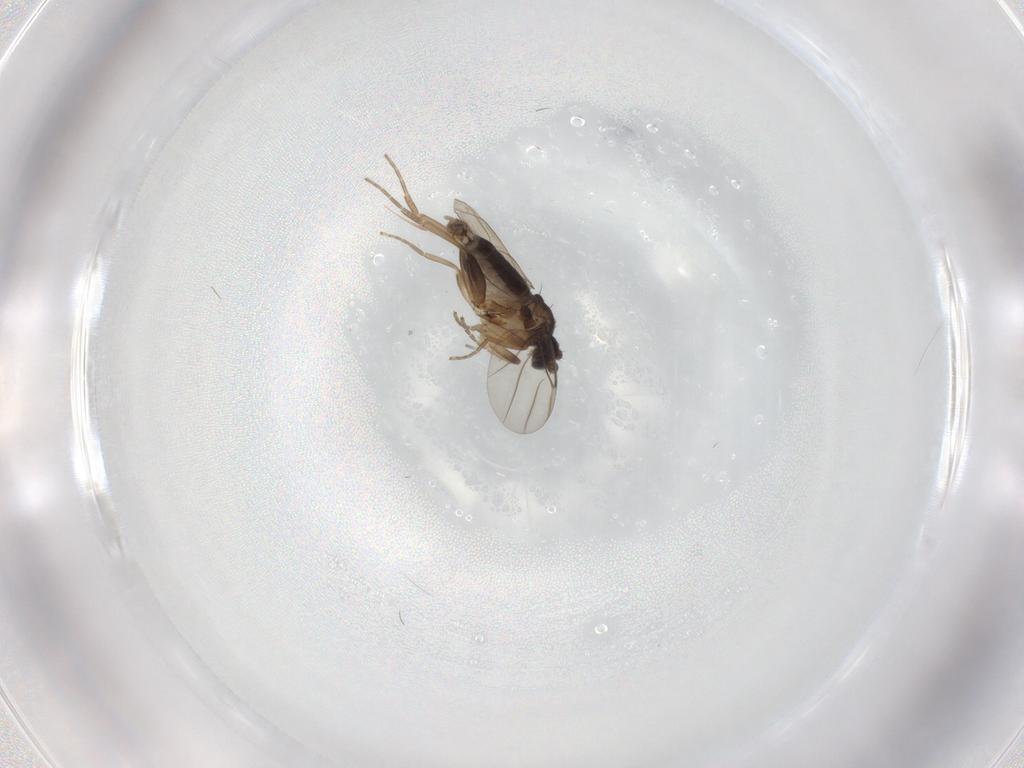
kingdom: Animalia
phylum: Arthropoda
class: Insecta
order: Diptera
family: Phoridae
